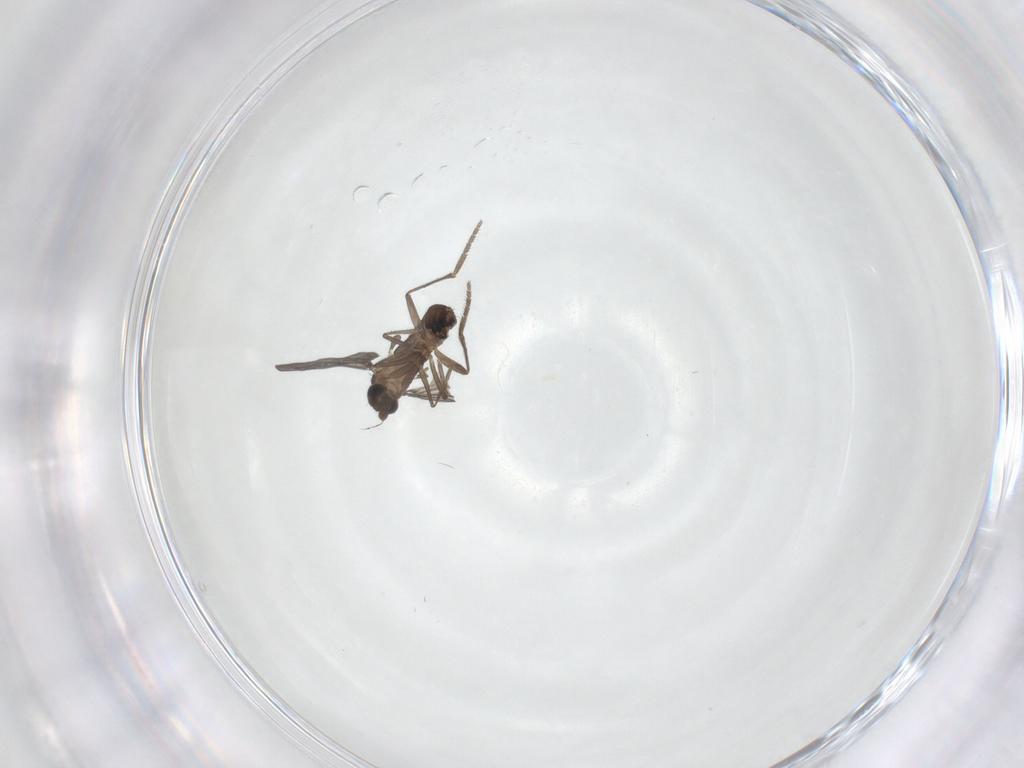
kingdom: Animalia
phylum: Arthropoda
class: Insecta
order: Diptera
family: Phoridae
